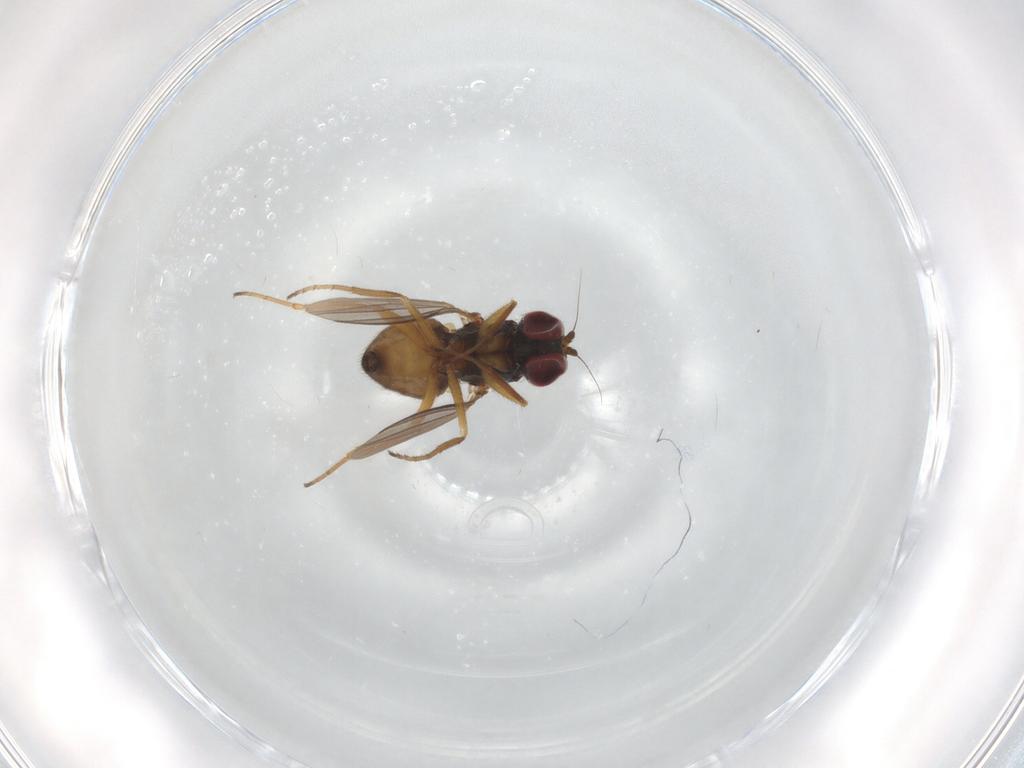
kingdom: Animalia
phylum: Arthropoda
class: Insecta
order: Diptera
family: Dolichopodidae
